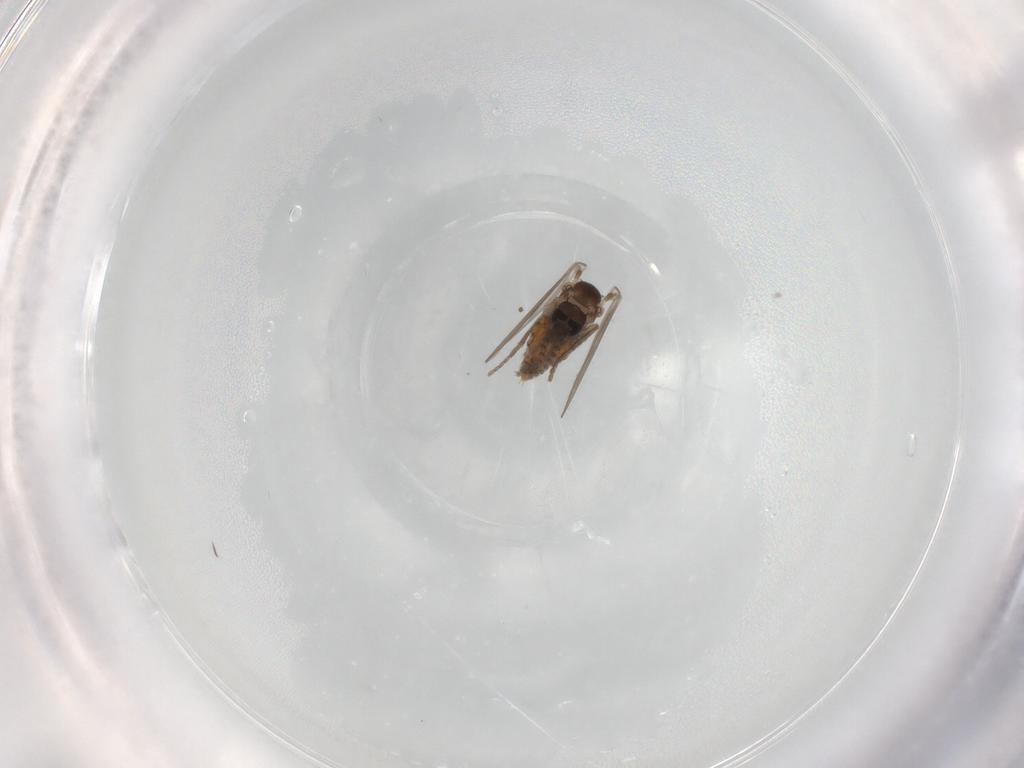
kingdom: Animalia
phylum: Arthropoda
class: Insecta
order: Diptera
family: Psychodidae
